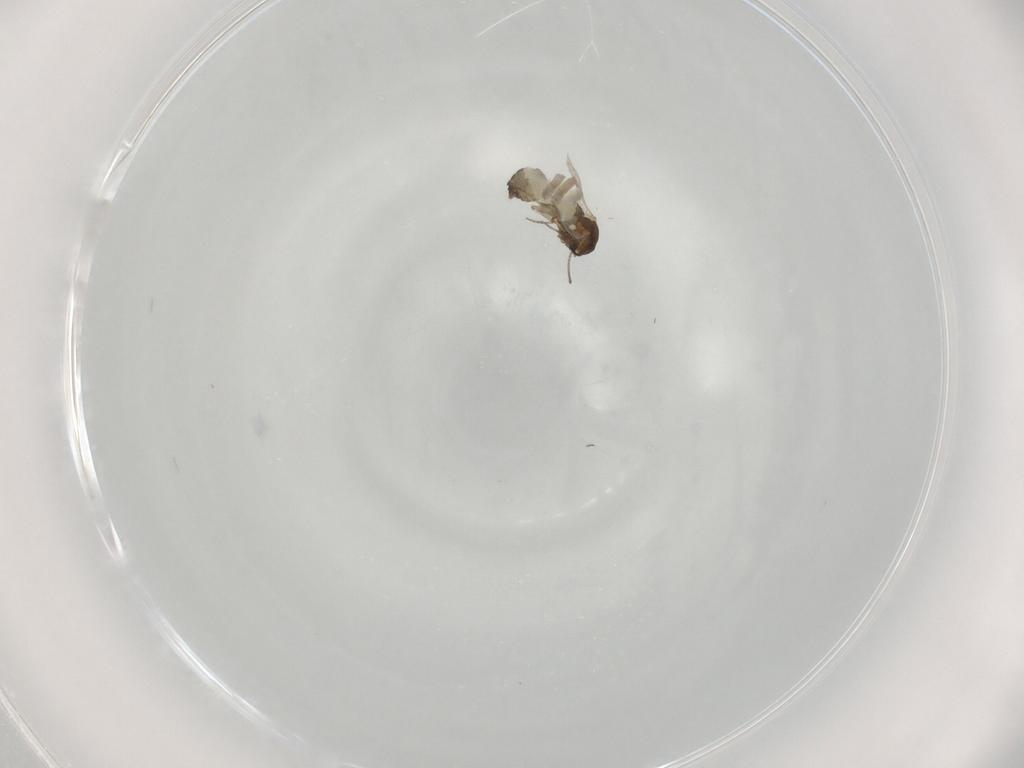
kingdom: Animalia
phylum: Arthropoda
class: Insecta
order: Diptera
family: Ceratopogonidae
